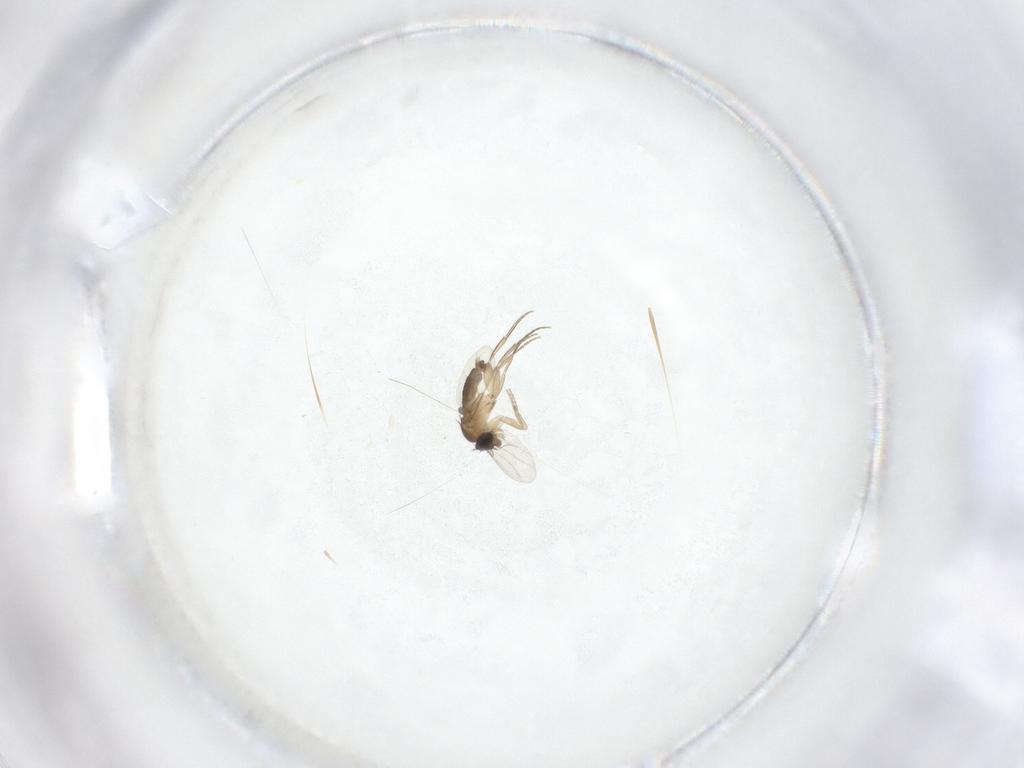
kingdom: Animalia
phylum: Arthropoda
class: Insecta
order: Diptera
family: Phoridae
